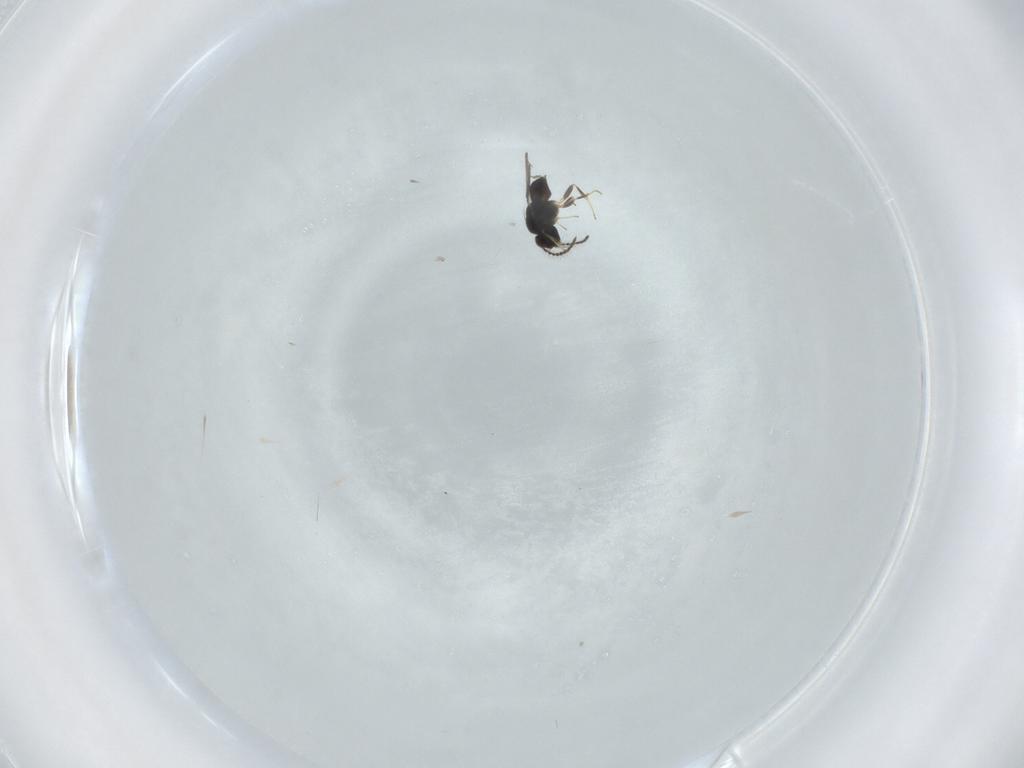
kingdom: Animalia
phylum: Arthropoda
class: Insecta
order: Hymenoptera
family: Ceraphronidae
